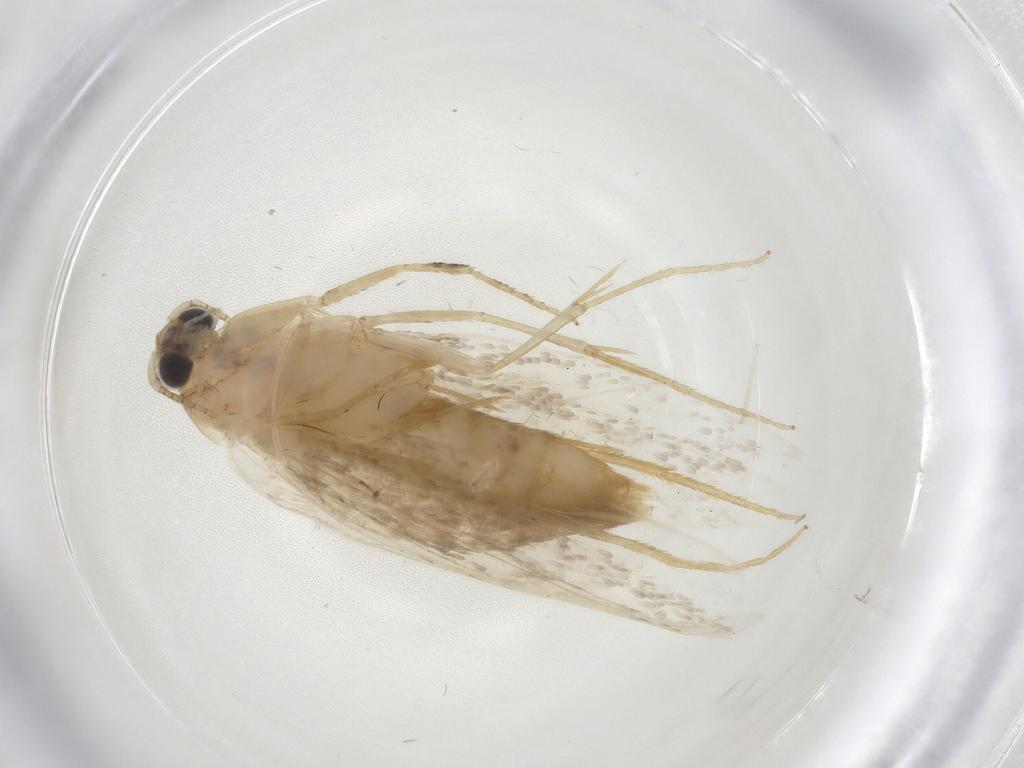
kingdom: Animalia
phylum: Arthropoda
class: Insecta
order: Lepidoptera
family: Tineidae
